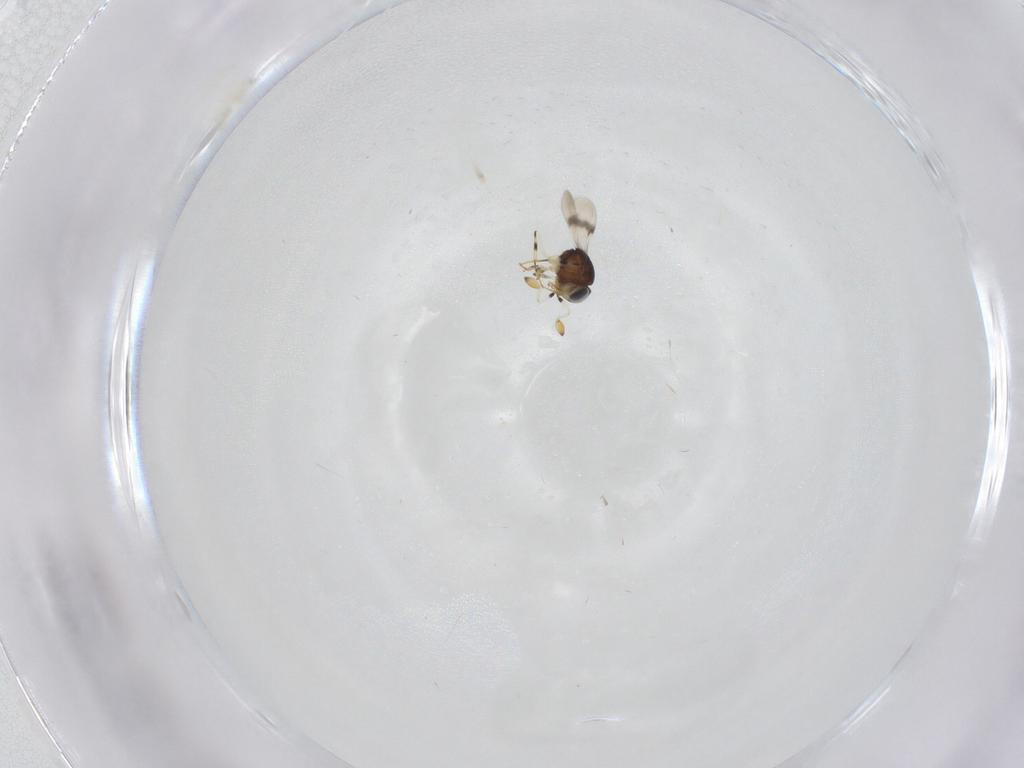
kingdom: Animalia
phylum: Arthropoda
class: Insecta
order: Hymenoptera
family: Scelionidae
